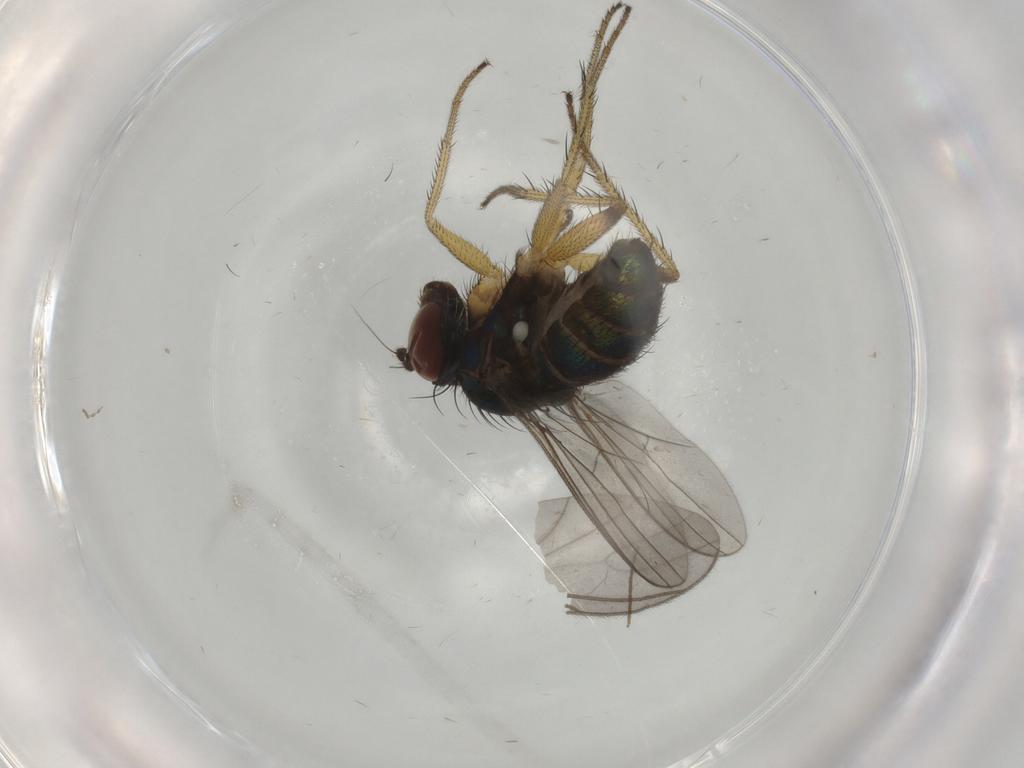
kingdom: Animalia
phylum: Arthropoda
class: Insecta
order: Diptera
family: Dolichopodidae
